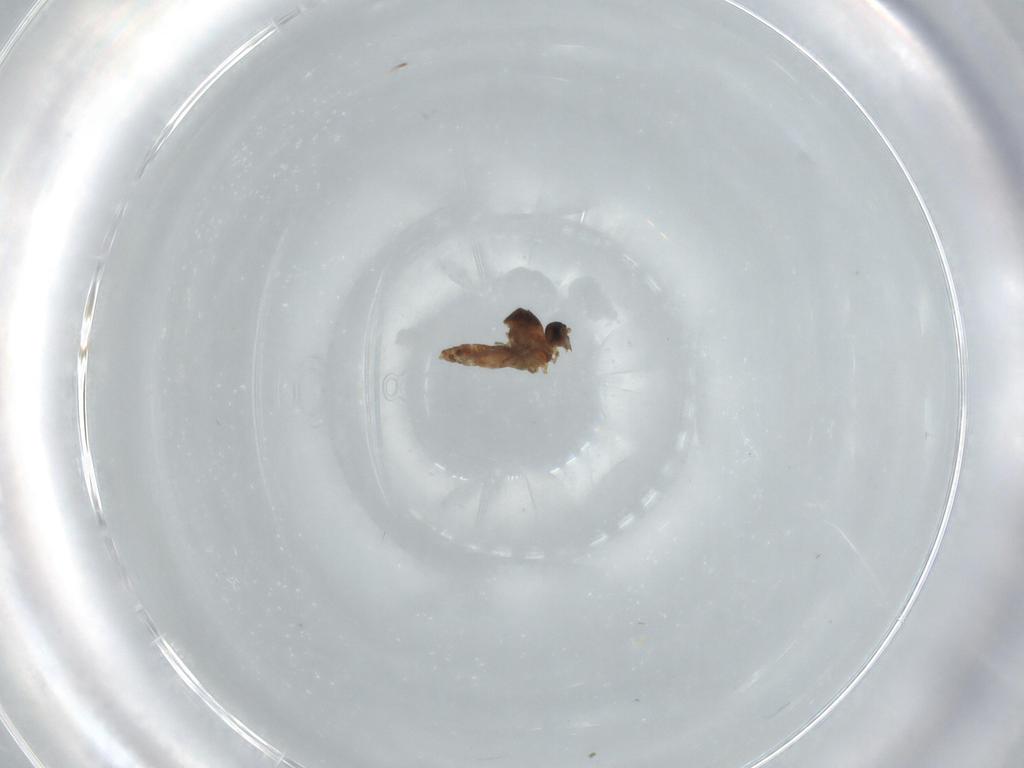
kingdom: Animalia
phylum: Arthropoda
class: Insecta
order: Diptera
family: Ceratopogonidae
